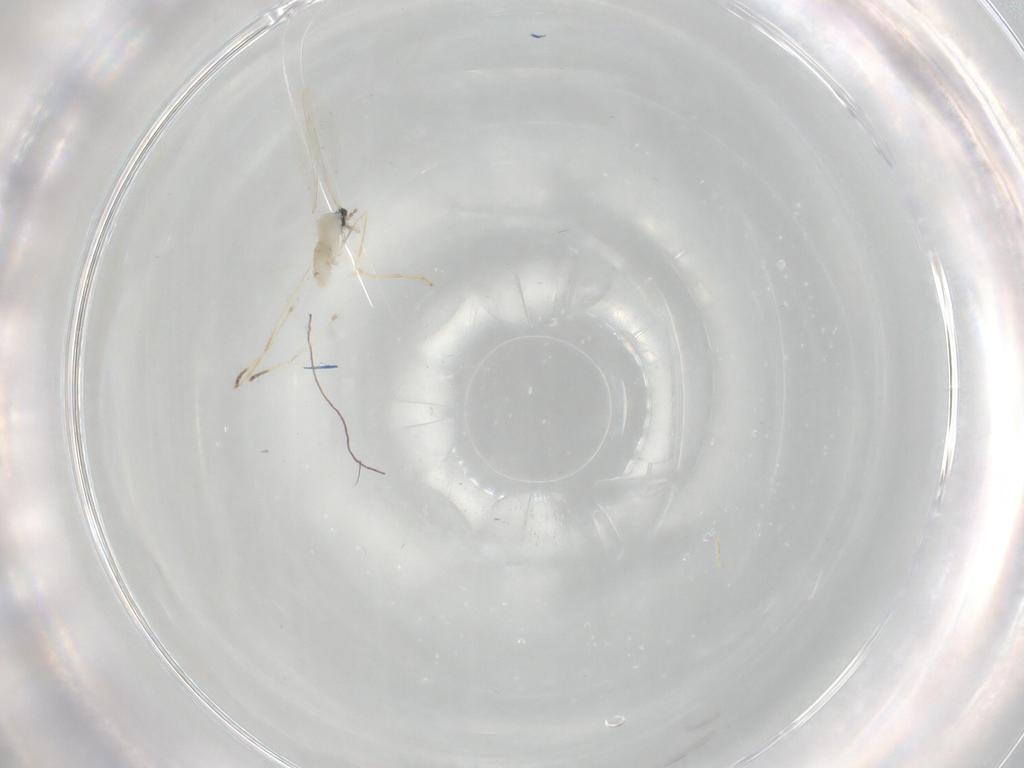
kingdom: Animalia
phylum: Arthropoda
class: Insecta
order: Diptera
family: Cecidomyiidae
